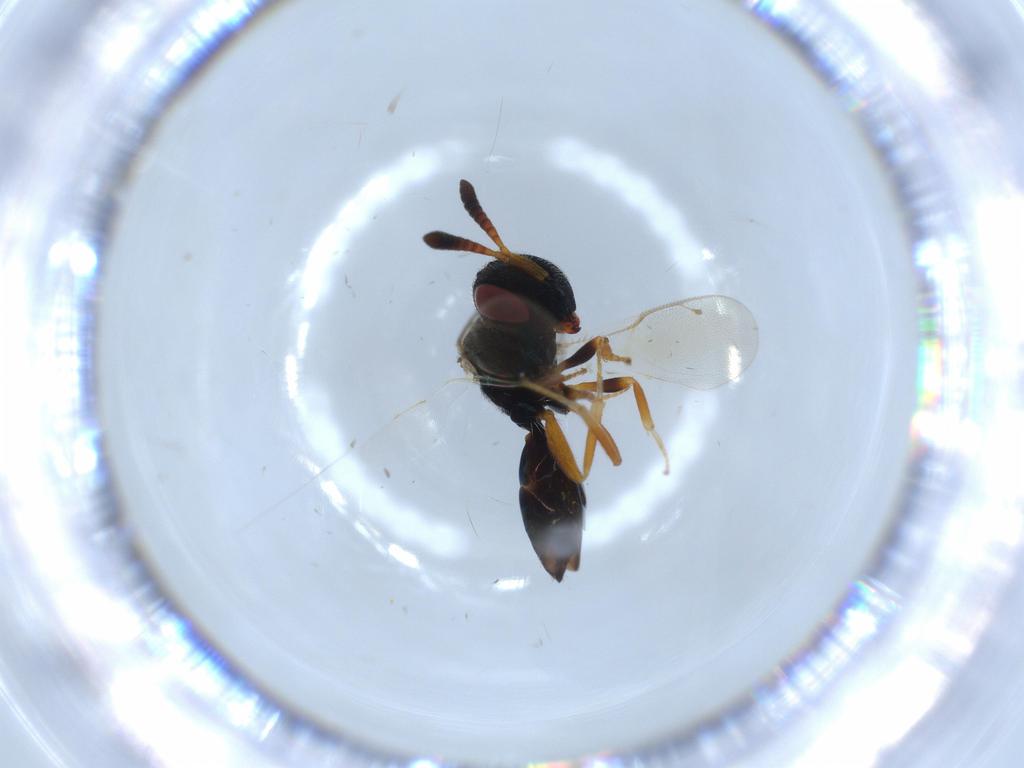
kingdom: Animalia
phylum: Arthropoda
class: Insecta
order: Hymenoptera
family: Agaonidae
